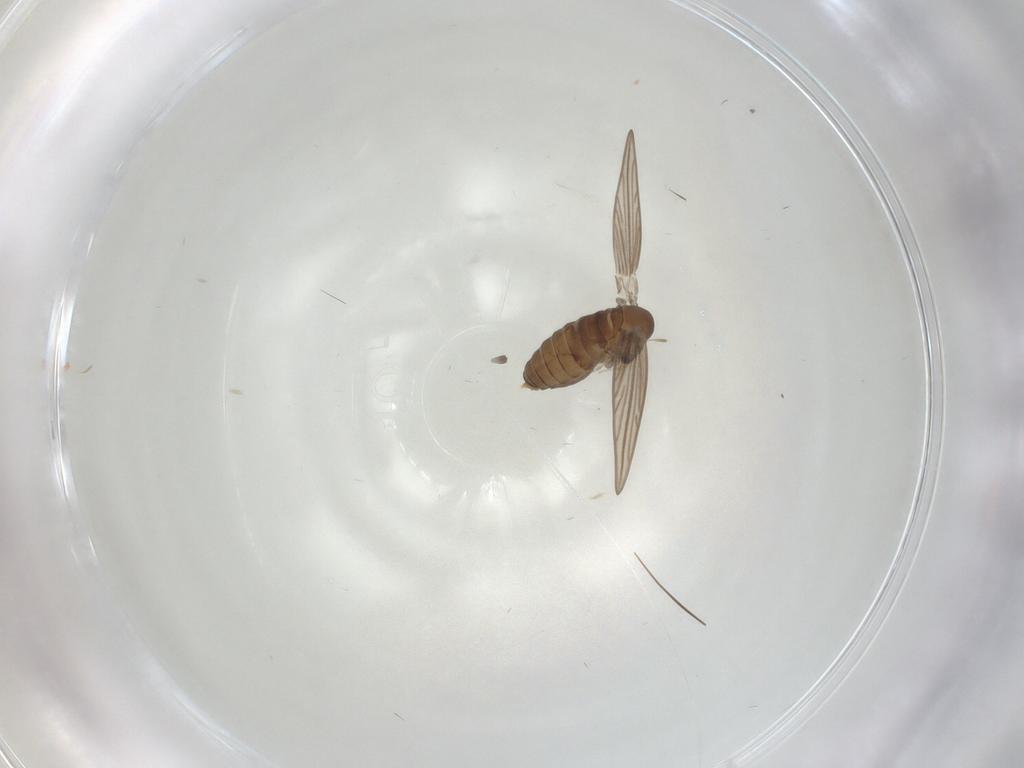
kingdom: Animalia
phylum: Arthropoda
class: Insecta
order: Diptera
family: Psychodidae
